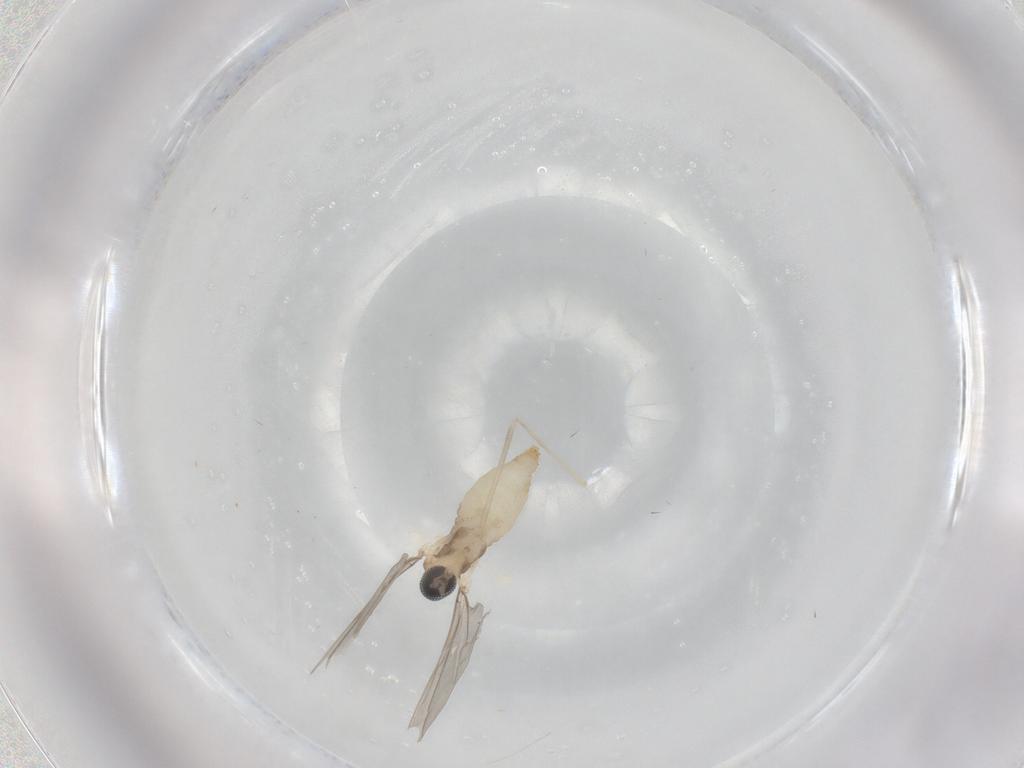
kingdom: Animalia
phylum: Arthropoda
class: Insecta
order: Diptera
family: Cecidomyiidae
